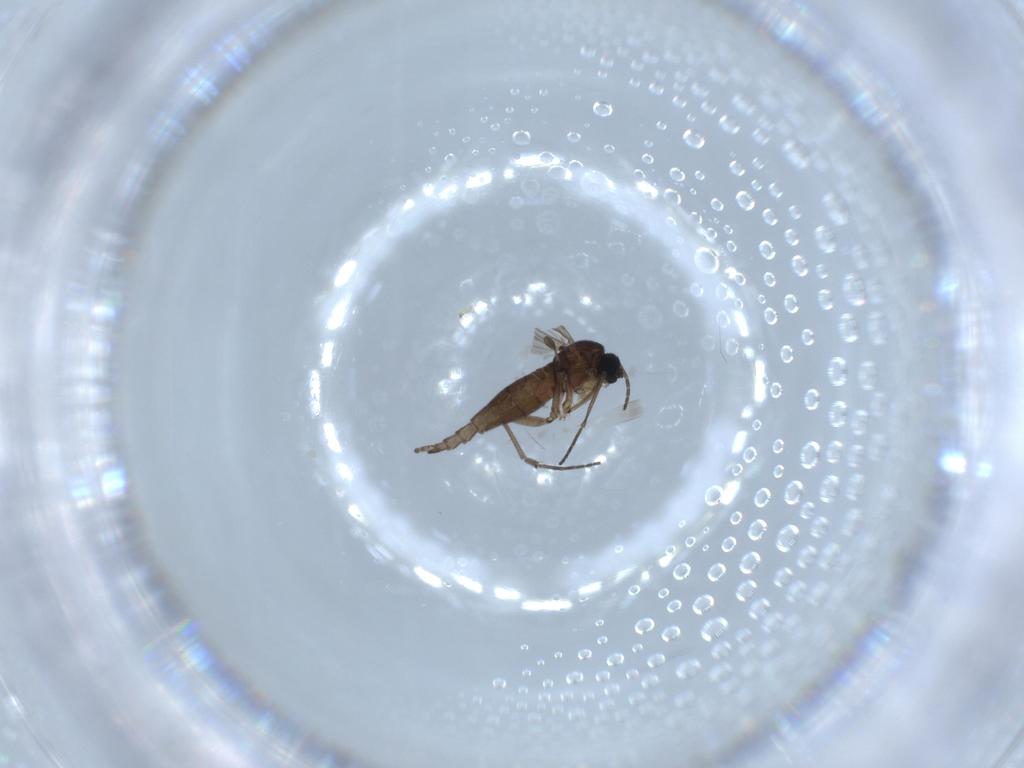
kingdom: Animalia
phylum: Arthropoda
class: Insecta
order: Diptera
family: Sciaridae
